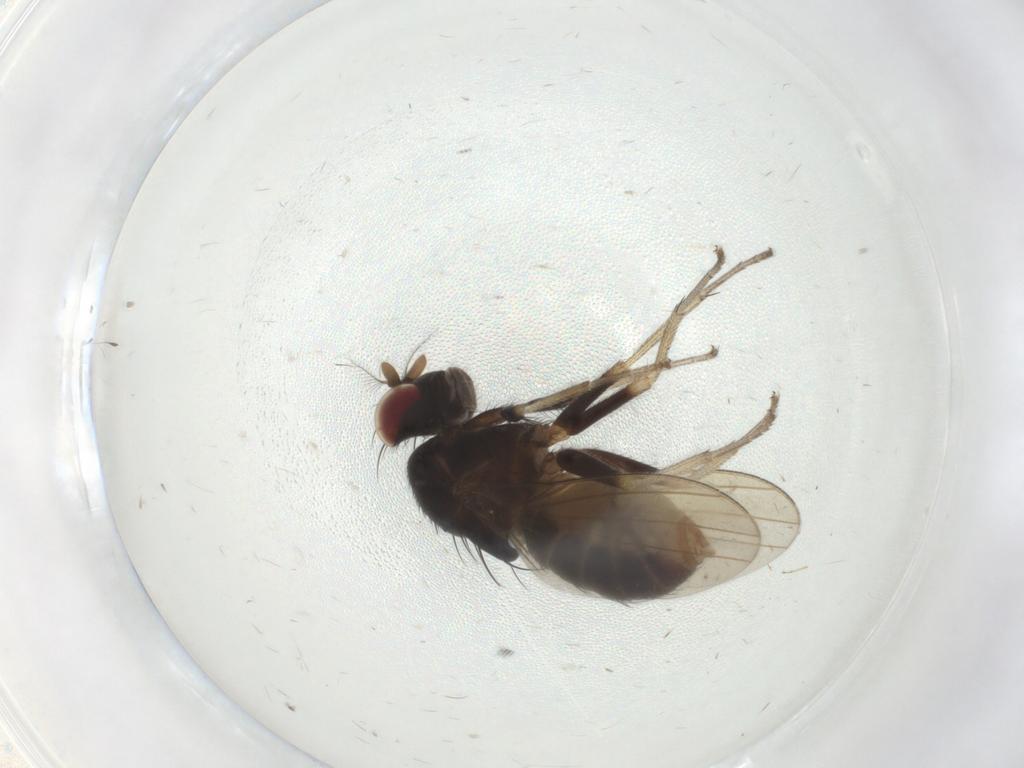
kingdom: Animalia
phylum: Arthropoda
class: Insecta
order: Diptera
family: Lauxaniidae
